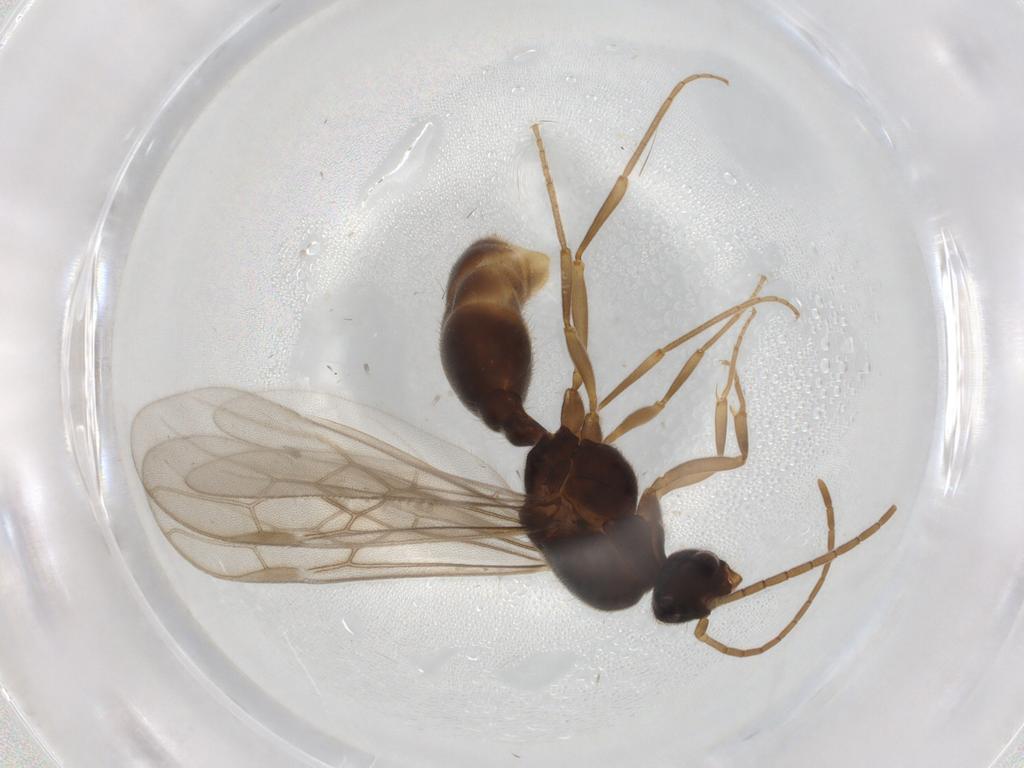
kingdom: Animalia
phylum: Arthropoda
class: Insecta
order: Hymenoptera
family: Formicidae
